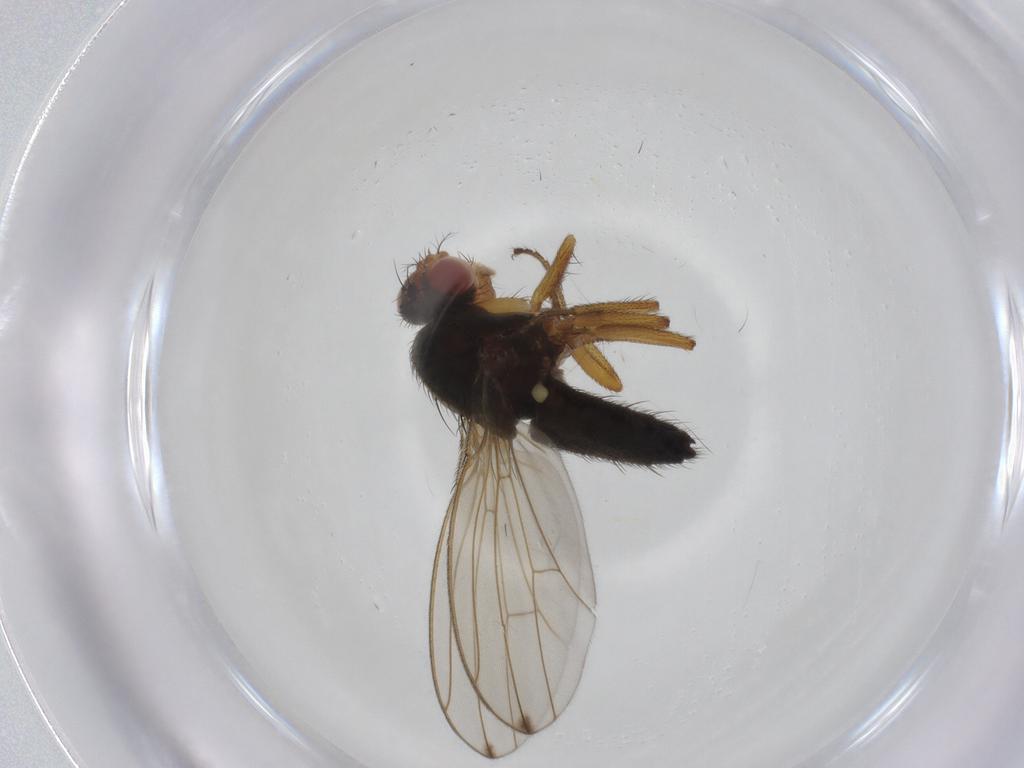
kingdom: Animalia
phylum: Arthropoda
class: Insecta
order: Diptera
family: Drosophilidae
